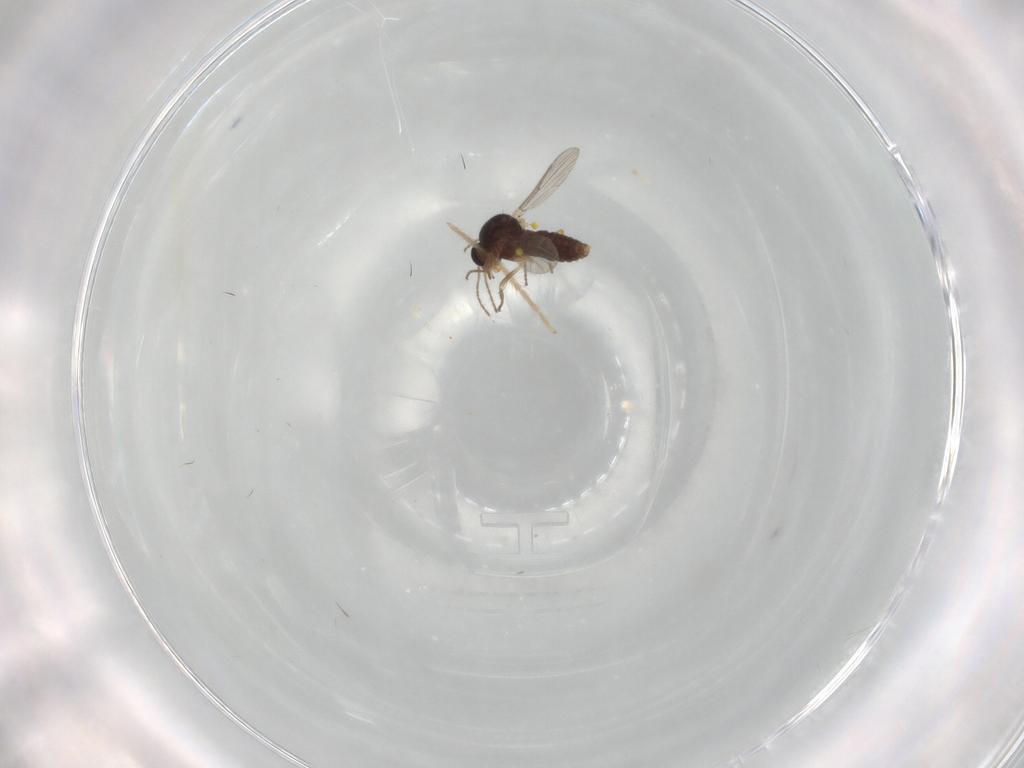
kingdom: Animalia
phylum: Arthropoda
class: Insecta
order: Diptera
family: Ceratopogonidae
